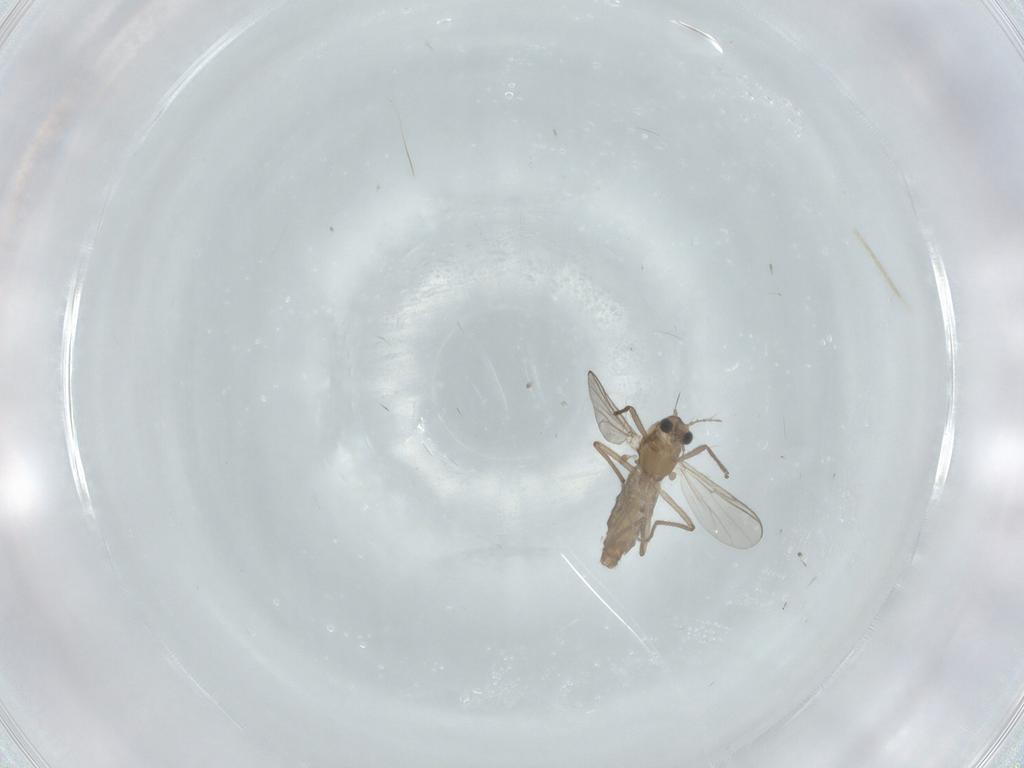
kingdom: Animalia
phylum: Arthropoda
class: Insecta
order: Diptera
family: Chironomidae
